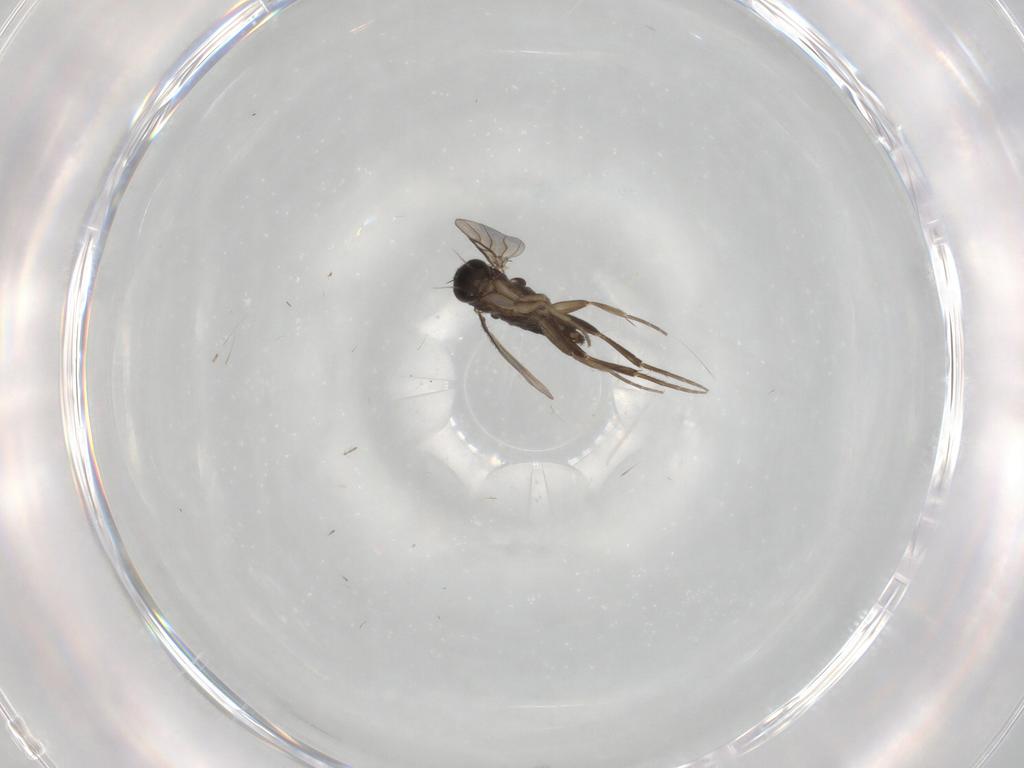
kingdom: Animalia
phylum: Arthropoda
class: Insecta
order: Diptera
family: Phoridae
